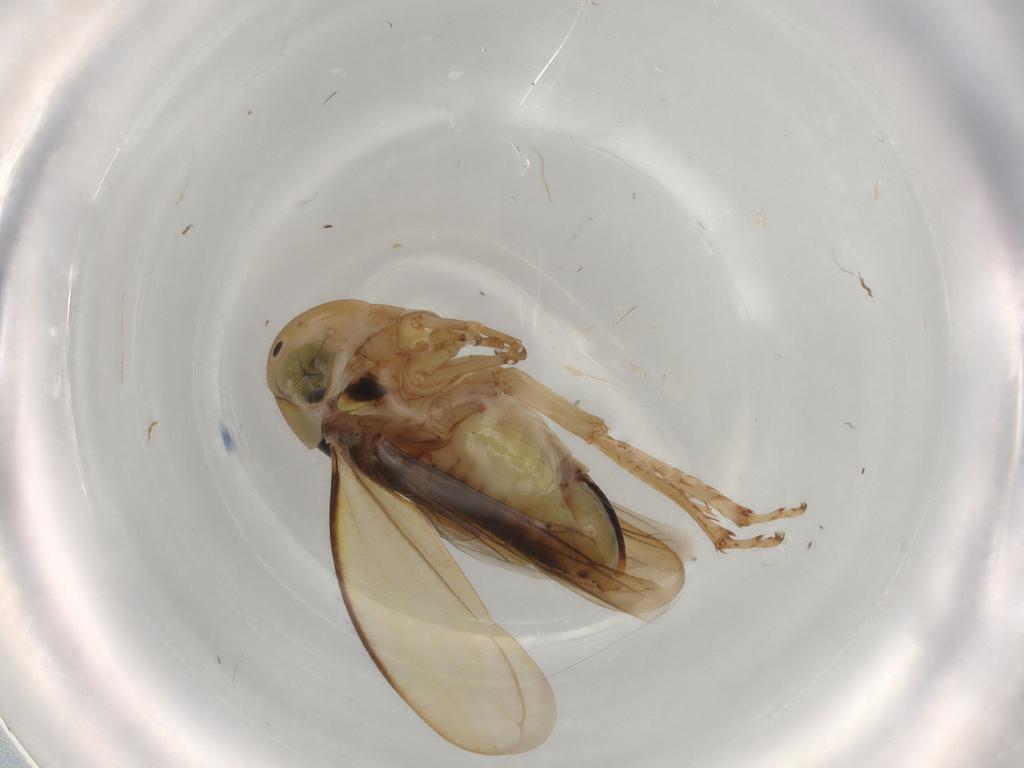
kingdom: Animalia
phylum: Arthropoda
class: Insecta
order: Hemiptera
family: Cicadellidae
